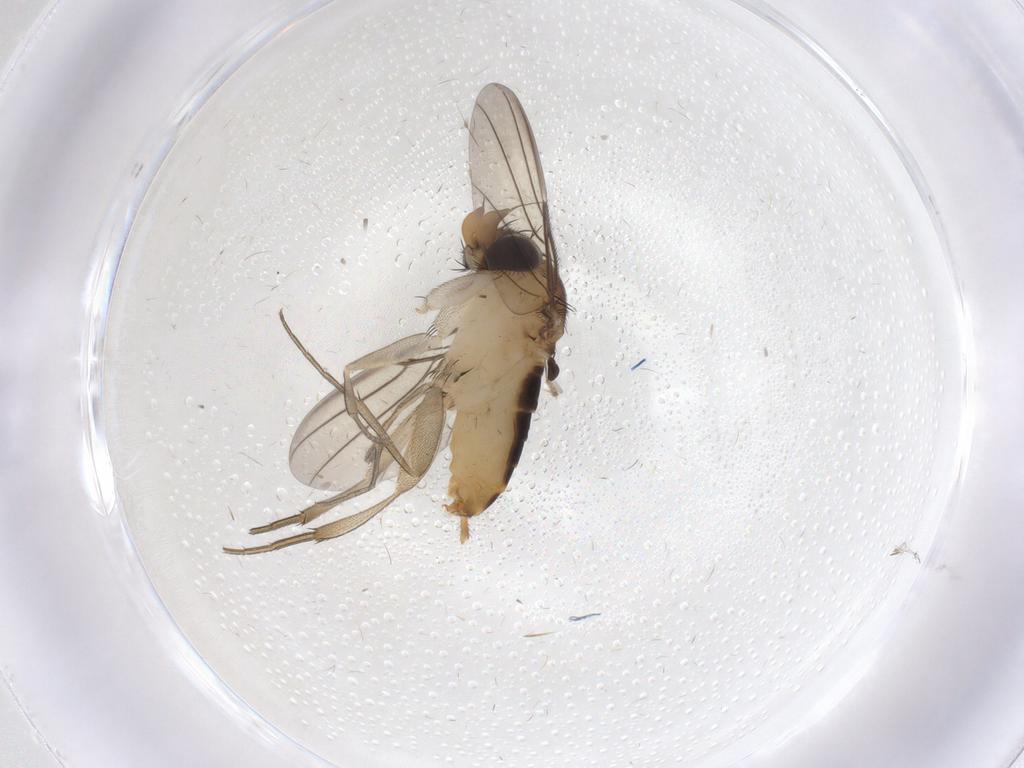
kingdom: Animalia
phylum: Arthropoda
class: Insecta
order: Diptera
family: Phoridae
